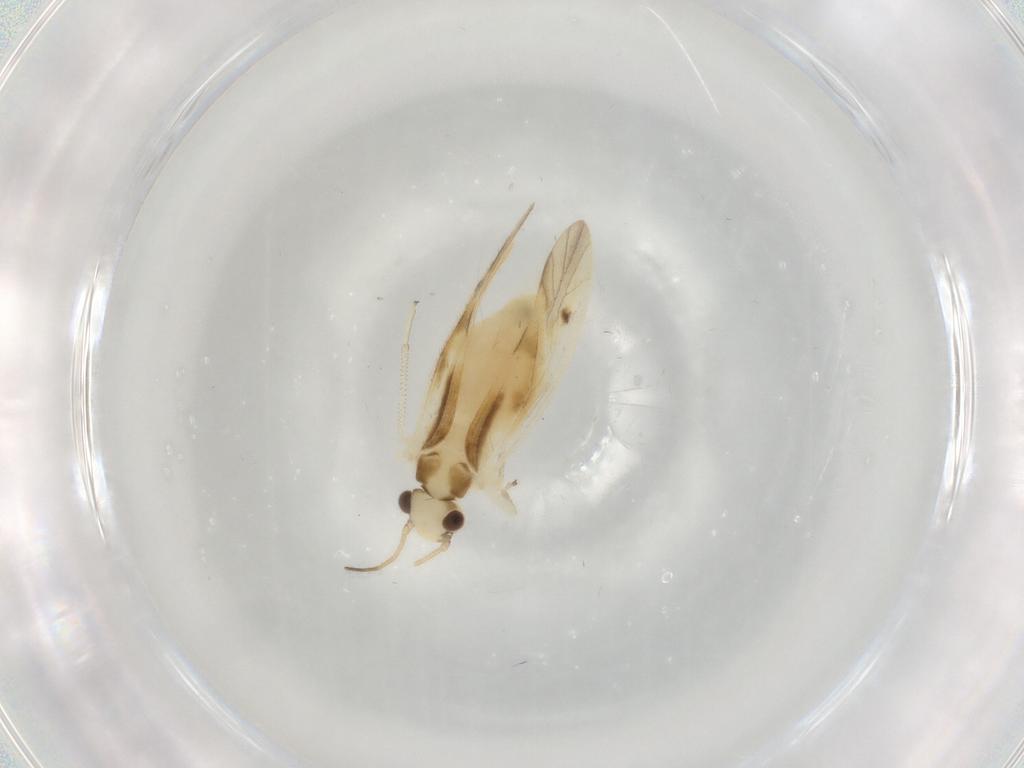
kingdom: Animalia
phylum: Arthropoda
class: Insecta
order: Psocodea
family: Caeciliusidae
